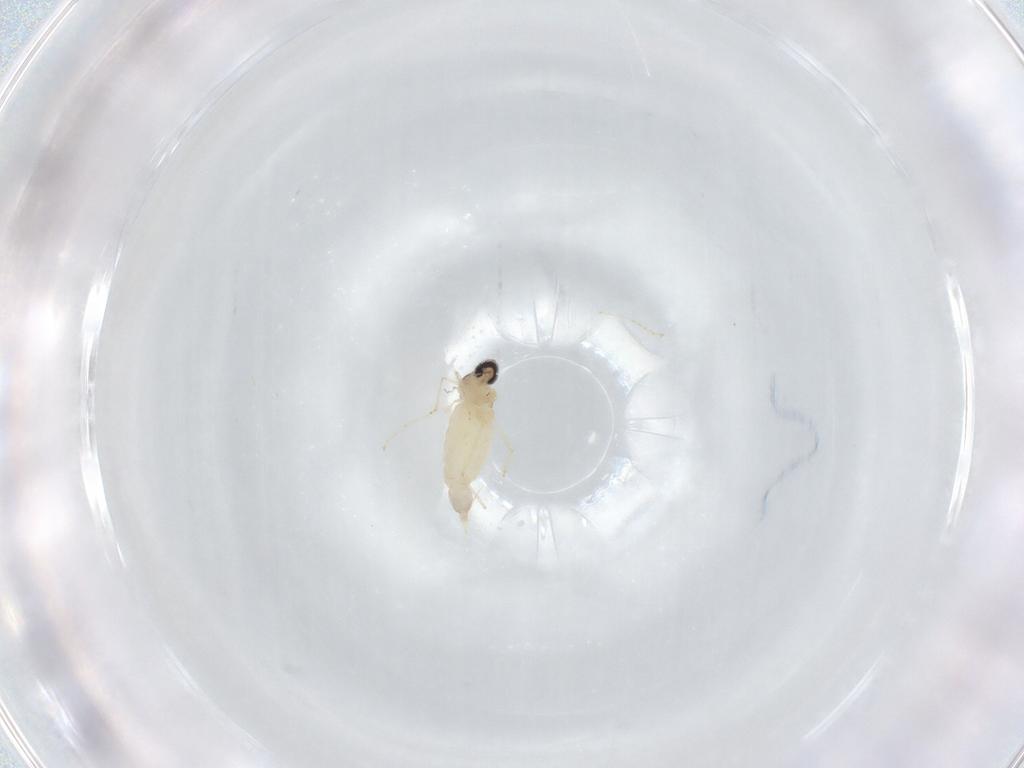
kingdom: Animalia
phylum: Arthropoda
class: Insecta
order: Diptera
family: Cecidomyiidae
